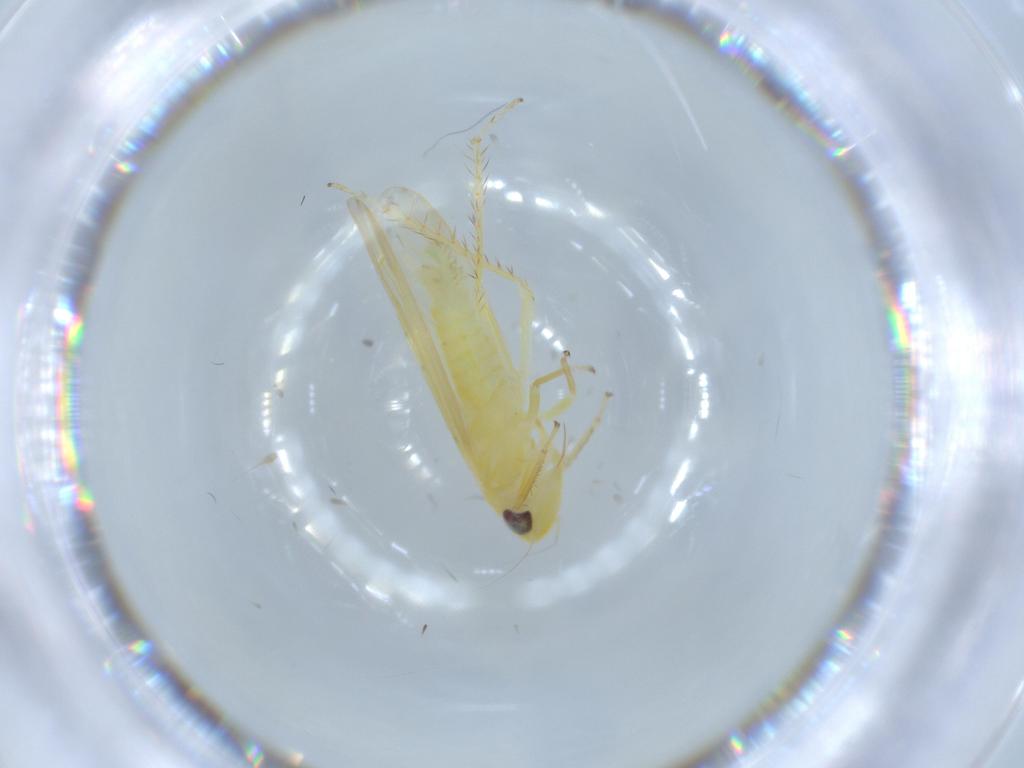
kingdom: Animalia
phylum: Arthropoda
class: Insecta
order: Hemiptera
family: Cicadellidae
